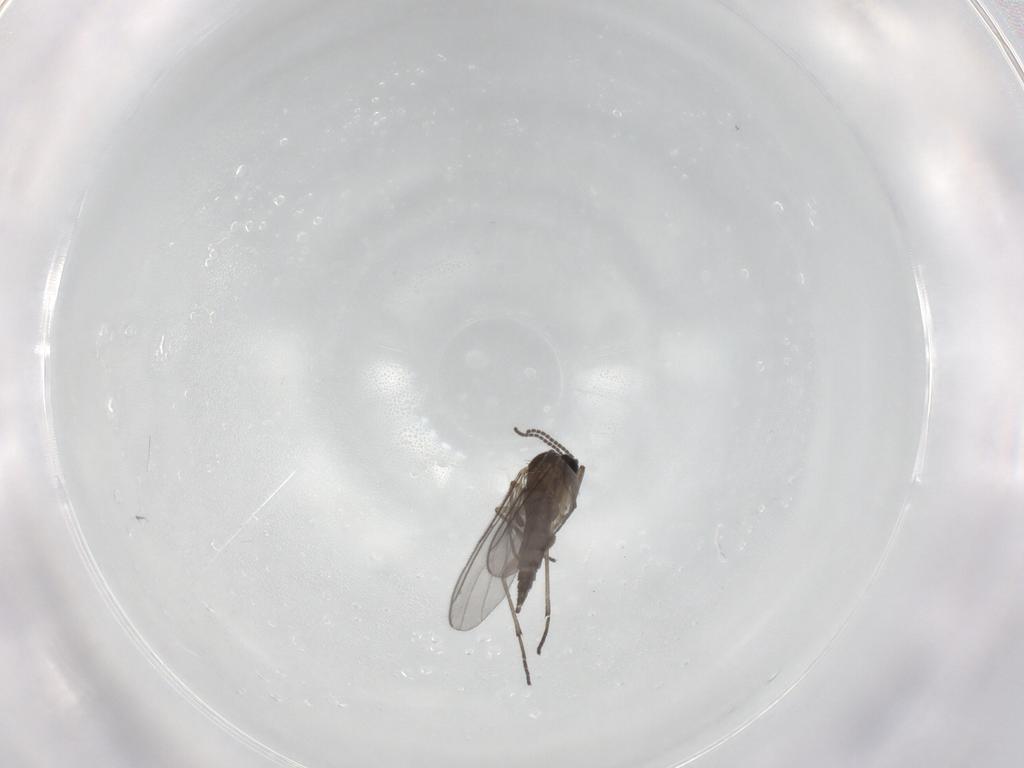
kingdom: Animalia
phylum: Arthropoda
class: Insecta
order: Diptera
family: Sciaridae
